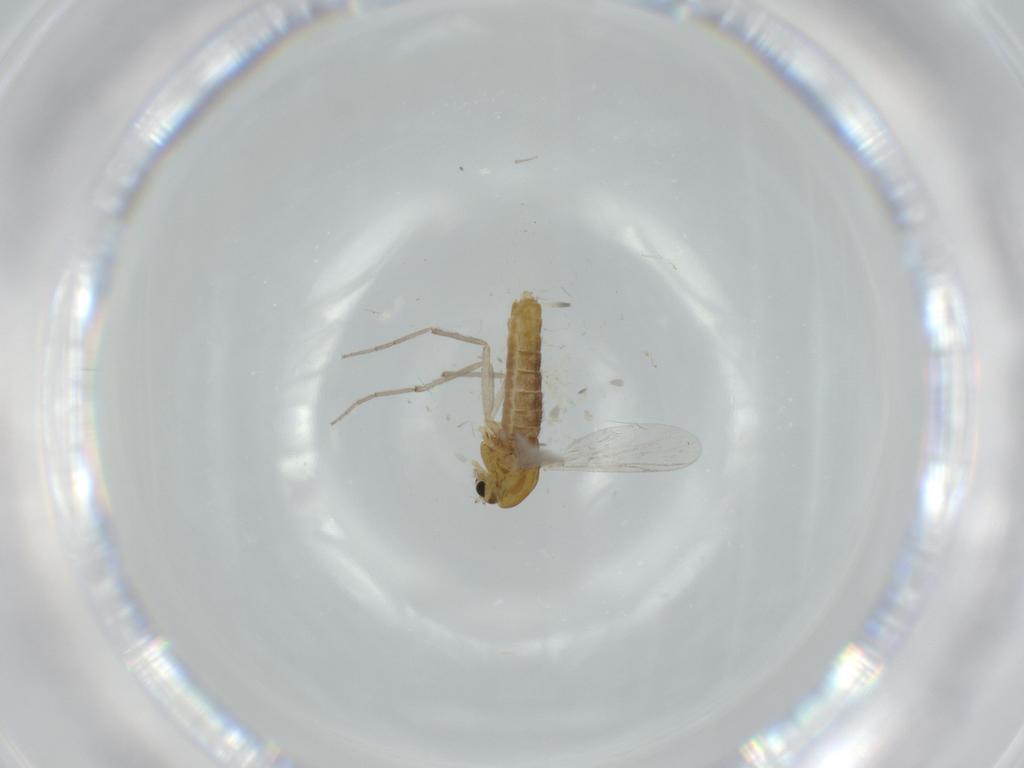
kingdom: Animalia
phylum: Arthropoda
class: Insecta
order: Diptera
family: Chironomidae
